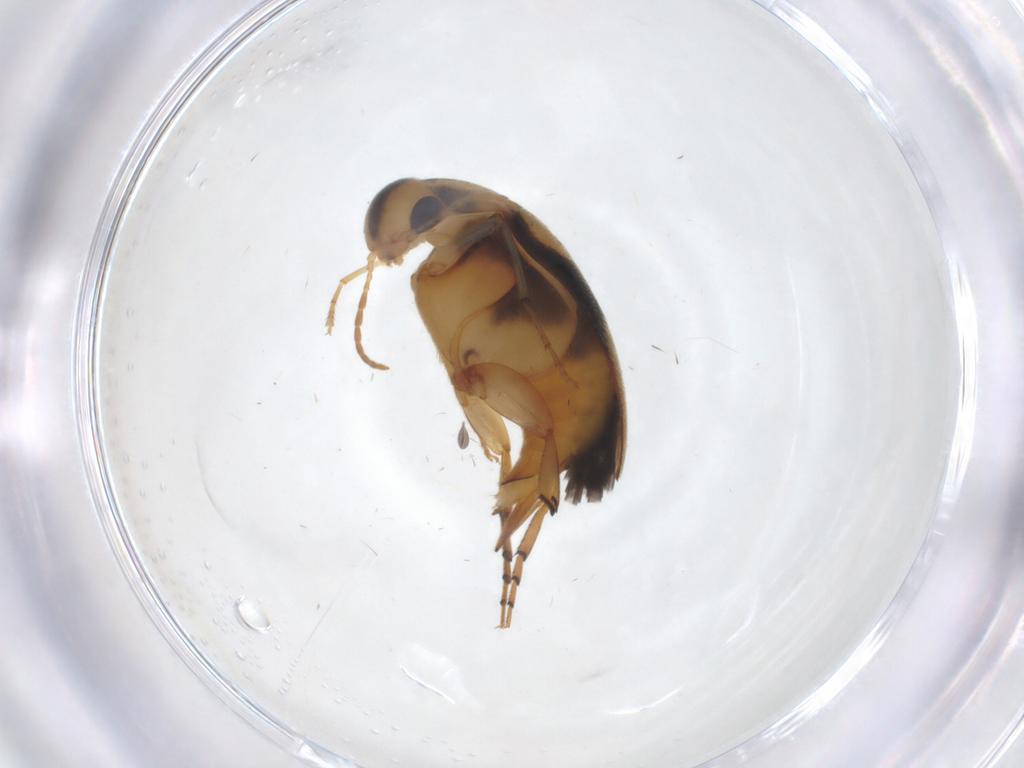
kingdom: Animalia
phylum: Arthropoda
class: Insecta
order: Coleoptera
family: Mordellidae
